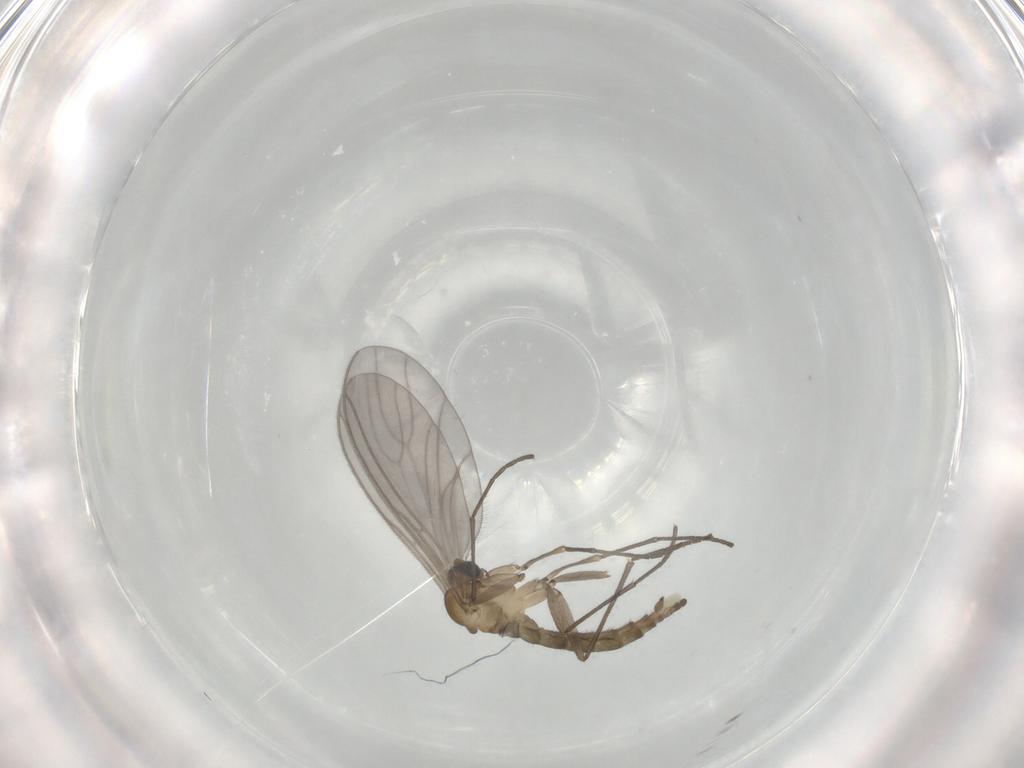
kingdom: Animalia
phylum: Arthropoda
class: Insecta
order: Diptera
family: Sciaridae
